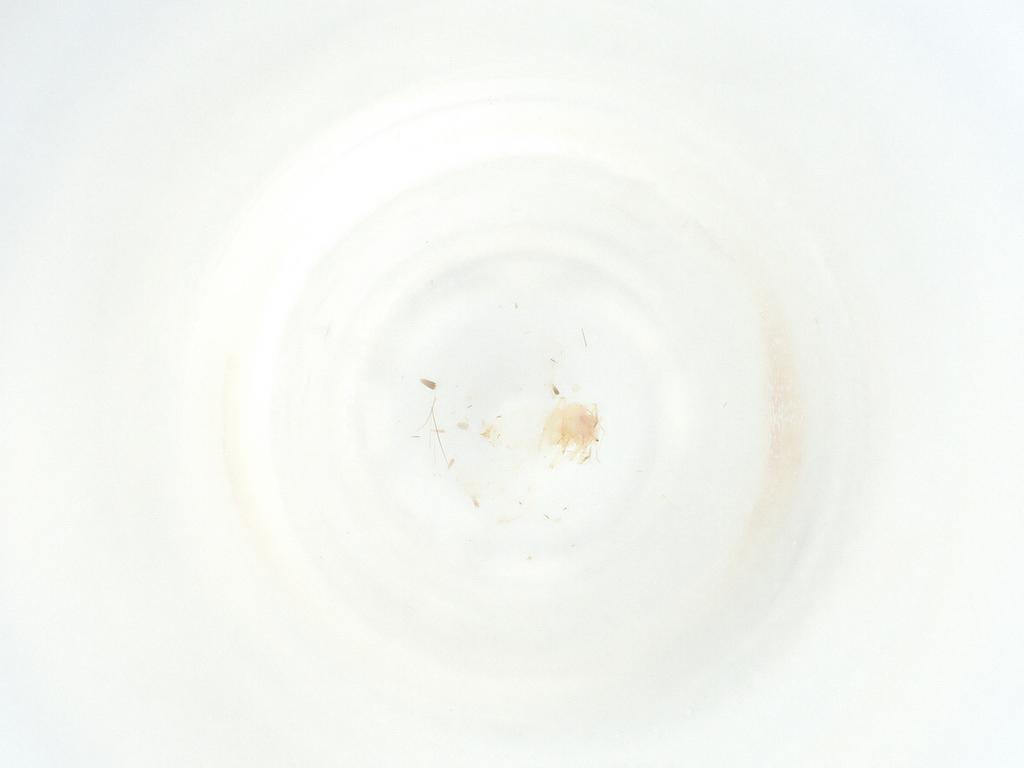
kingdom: Animalia
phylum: Arthropoda
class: Insecta
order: Hemiptera
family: Aleyrodidae
